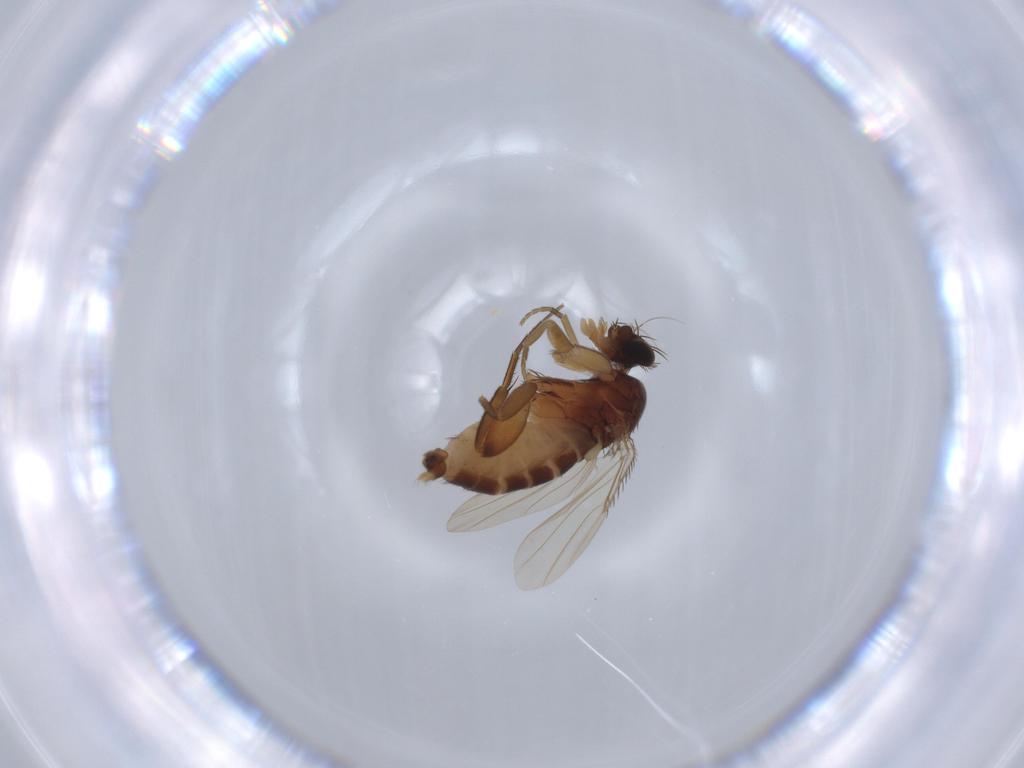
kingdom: Animalia
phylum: Arthropoda
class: Insecta
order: Diptera
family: Phoridae
